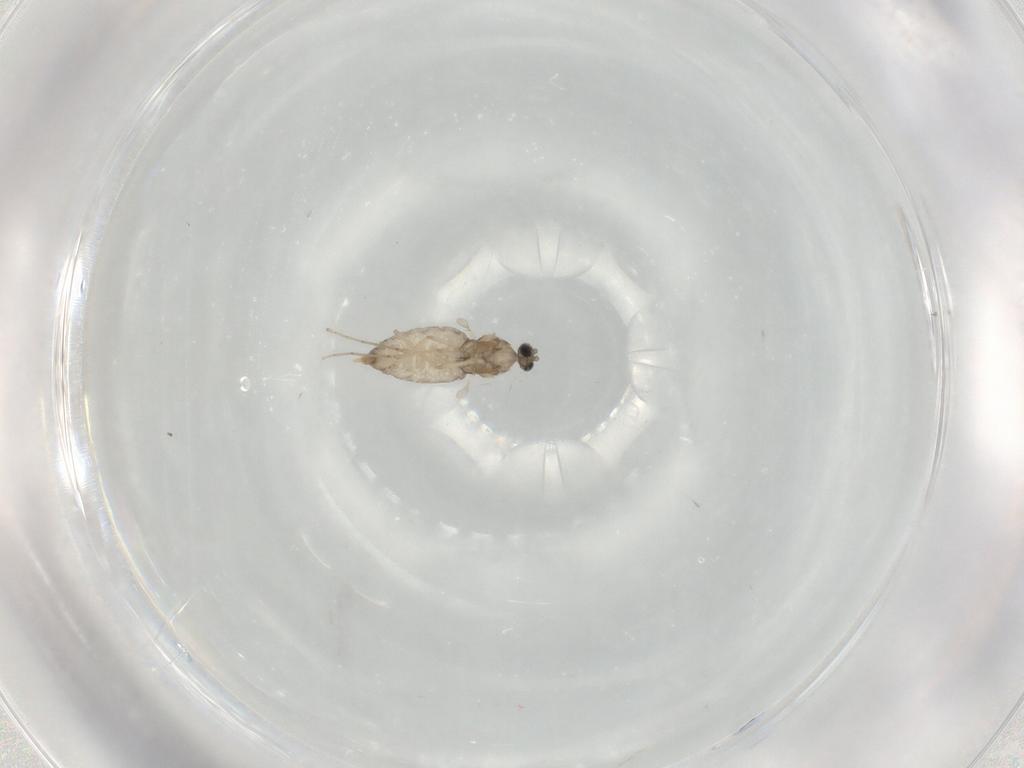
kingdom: Animalia
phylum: Arthropoda
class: Insecta
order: Diptera
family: Cecidomyiidae
